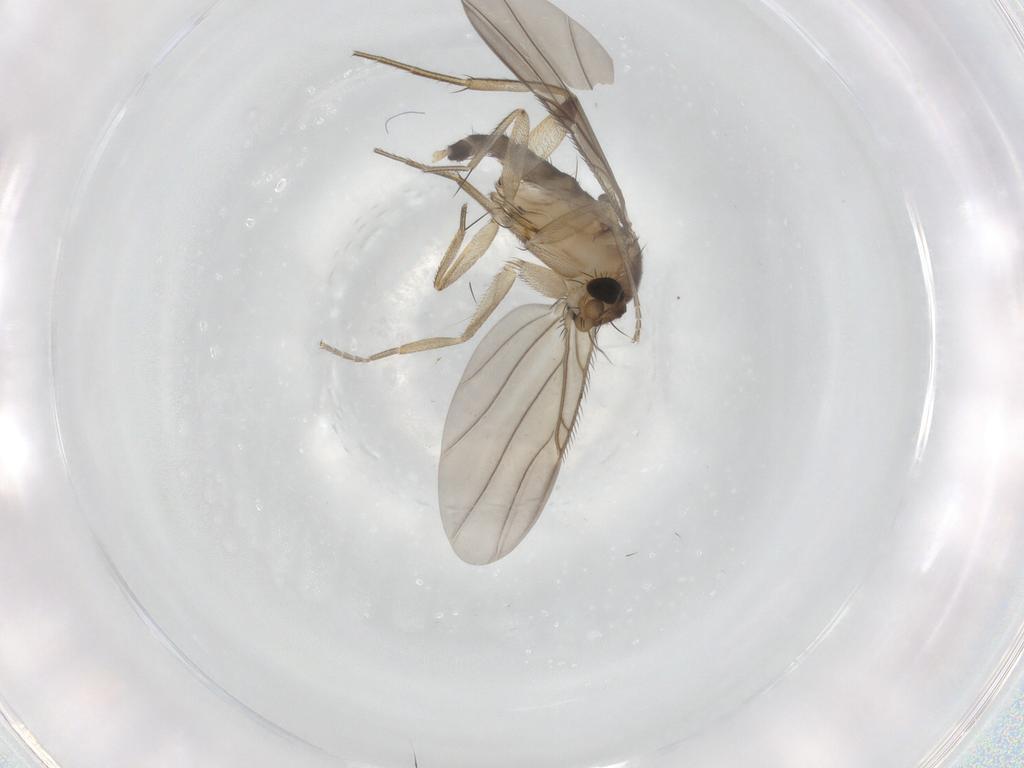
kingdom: Animalia
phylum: Arthropoda
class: Insecta
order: Diptera
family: Phoridae
